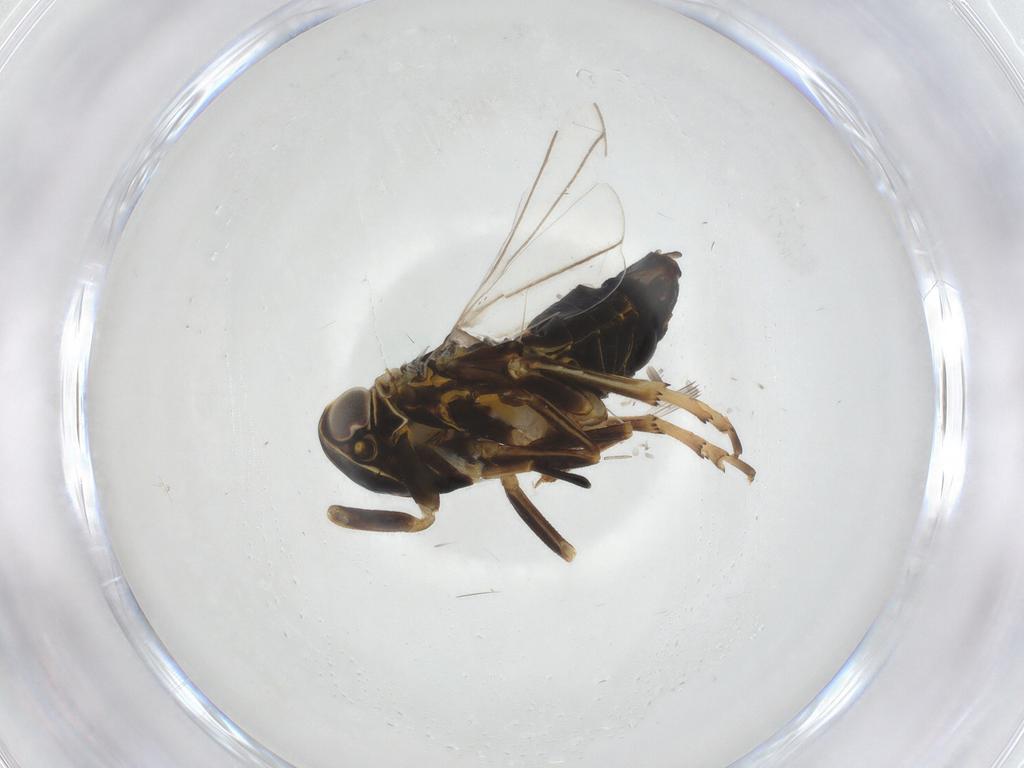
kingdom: Animalia
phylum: Arthropoda
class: Insecta
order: Hemiptera
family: Cixiidae
